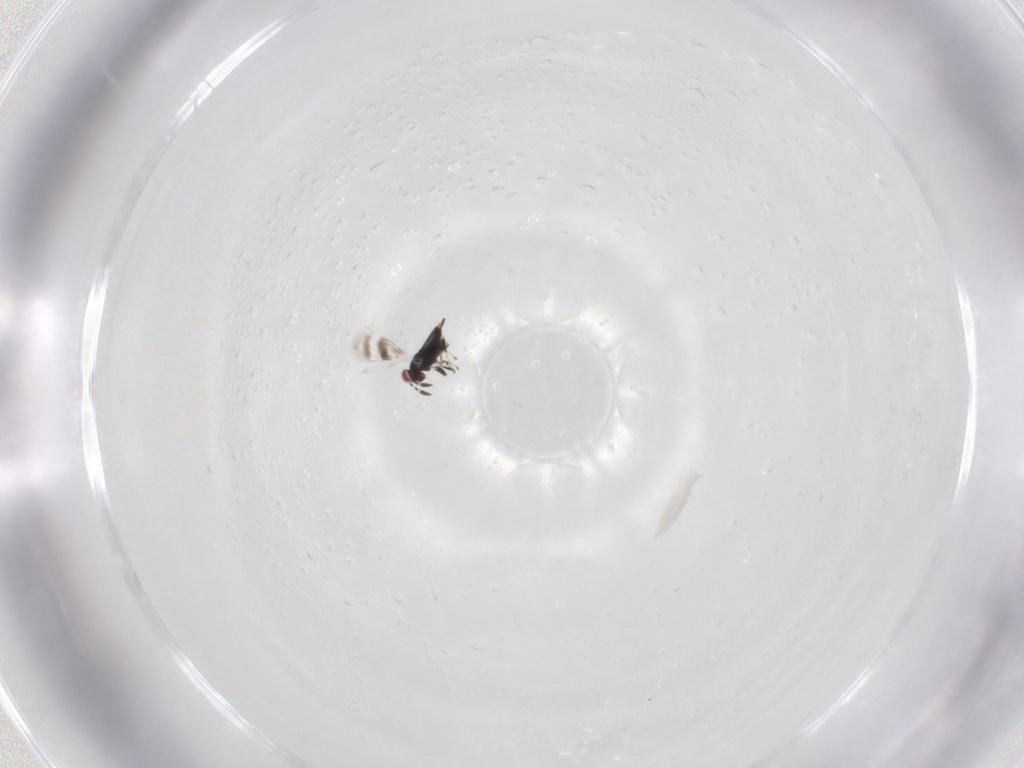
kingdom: Animalia
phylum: Arthropoda
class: Insecta
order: Hymenoptera
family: Azotidae
